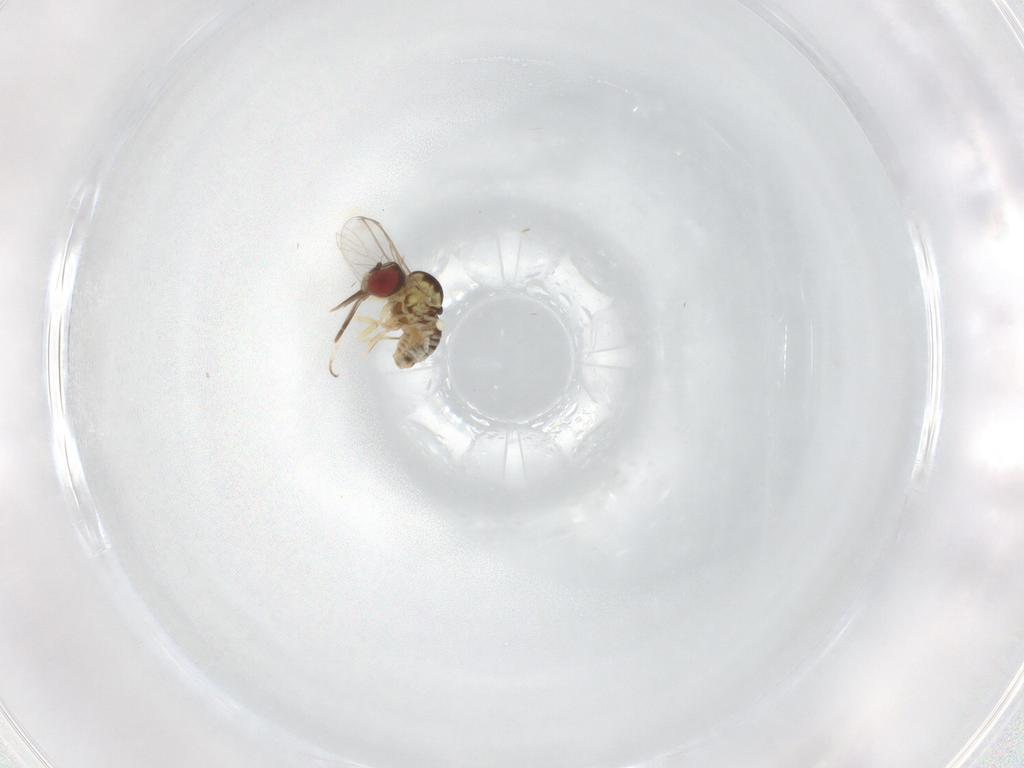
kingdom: Animalia
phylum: Arthropoda
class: Insecta
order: Diptera
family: Anthomyiidae
